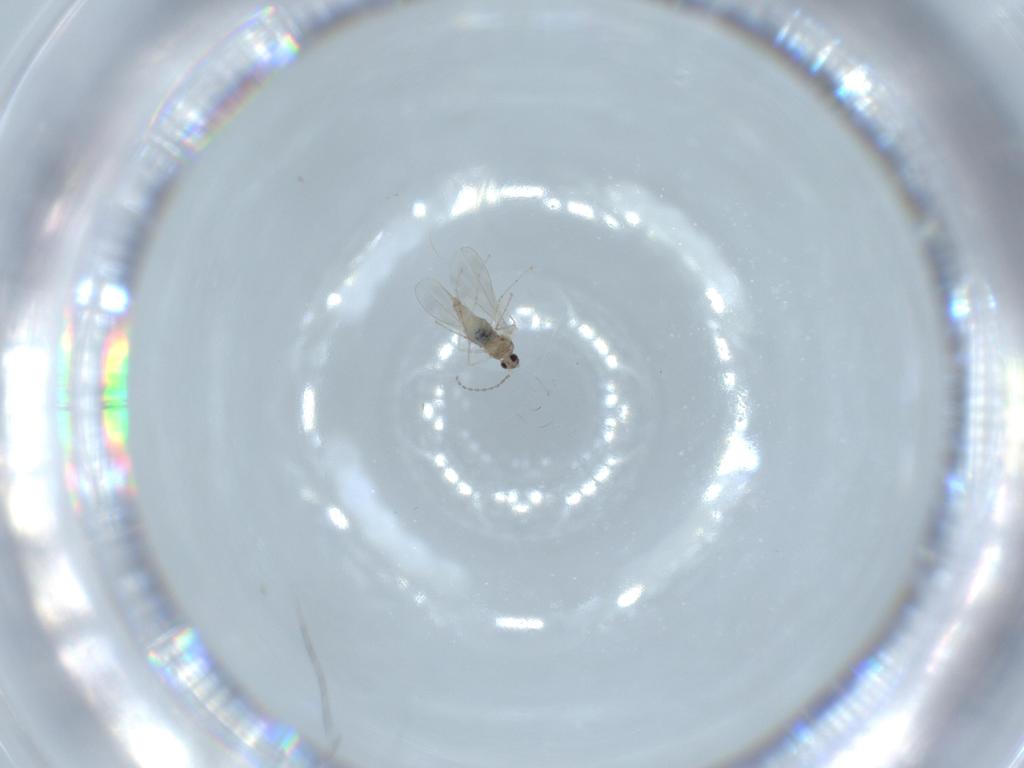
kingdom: Animalia
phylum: Arthropoda
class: Insecta
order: Diptera
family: Cecidomyiidae
